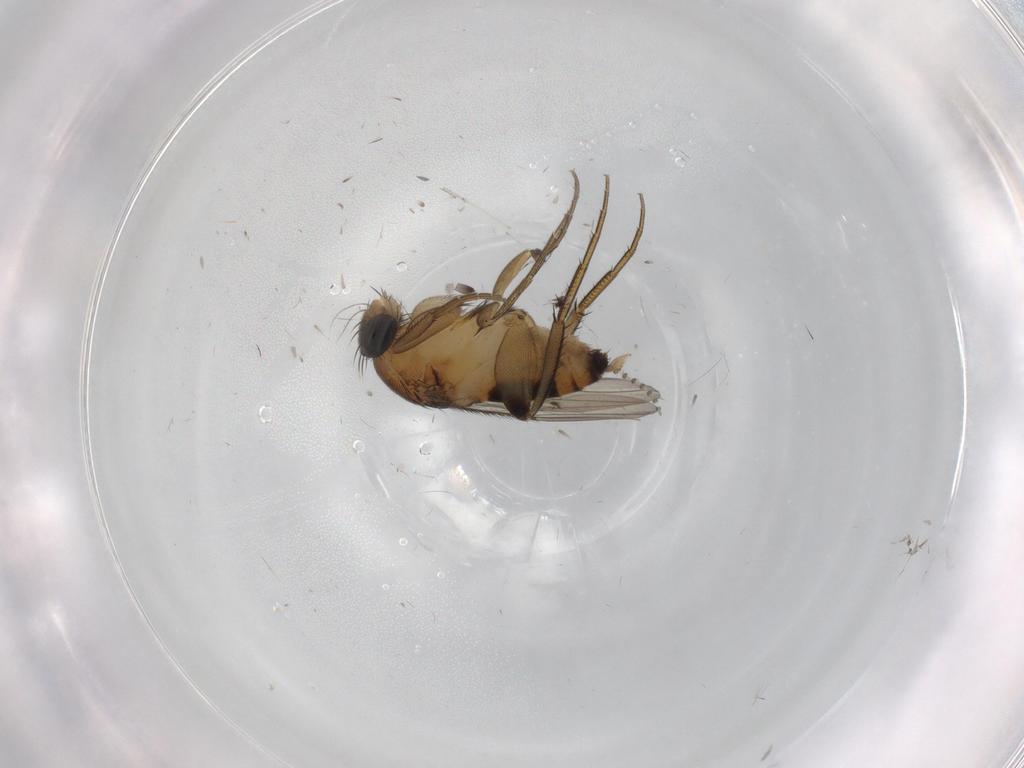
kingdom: Animalia
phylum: Arthropoda
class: Insecta
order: Diptera
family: Phoridae
